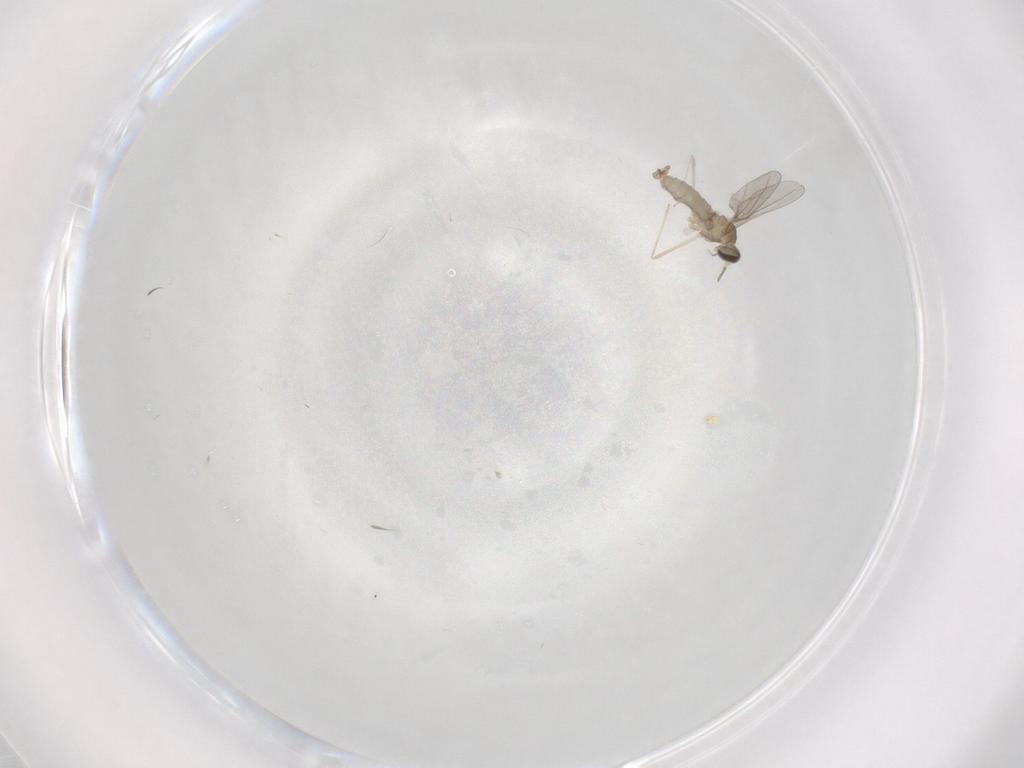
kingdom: Animalia
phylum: Arthropoda
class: Insecta
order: Diptera
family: Cecidomyiidae
